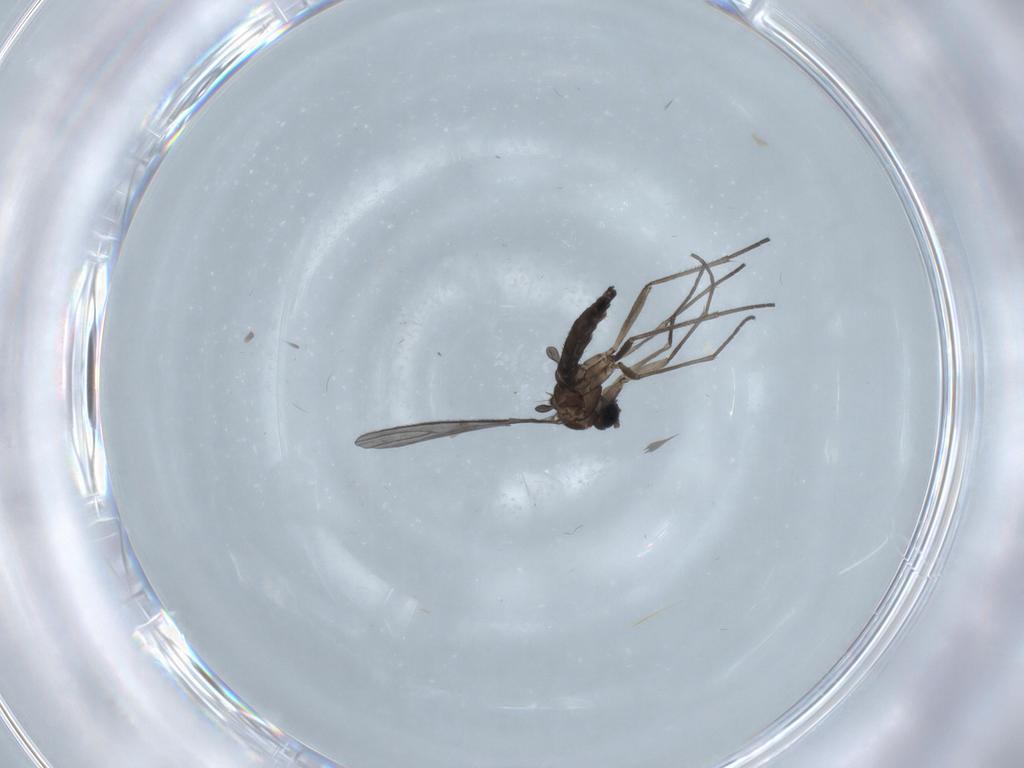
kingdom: Animalia
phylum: Arthropoda
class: Insecta
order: Diptera
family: Sciaridae
